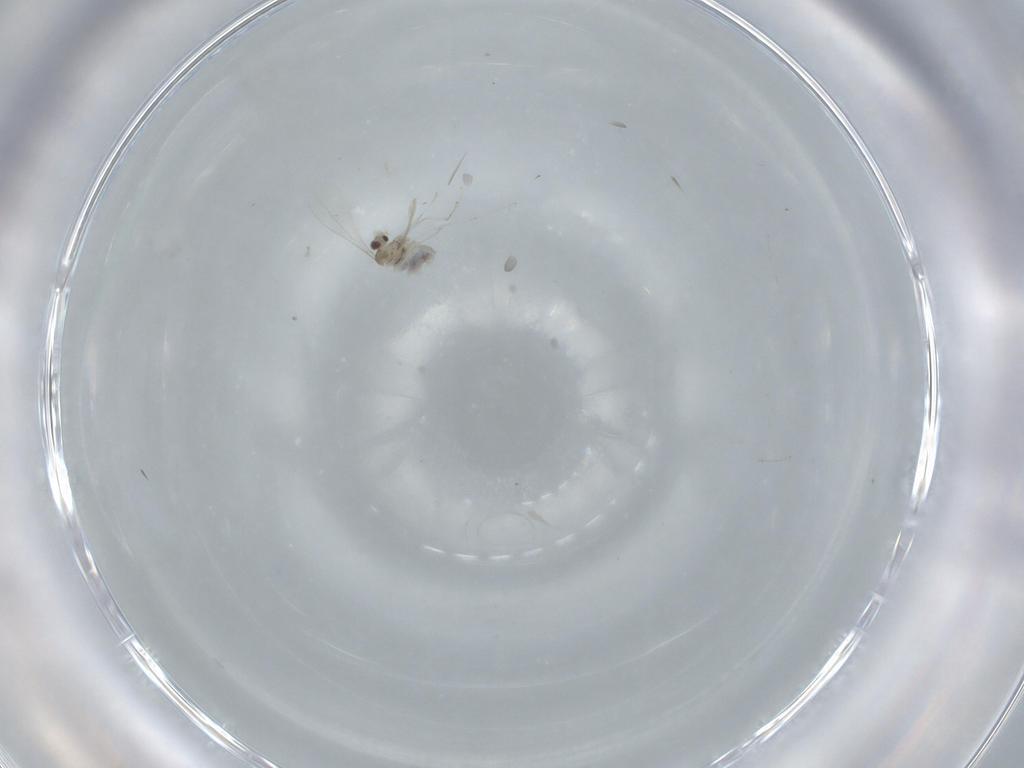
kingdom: Animalia
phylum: Arthropoda
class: Insecta
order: Diptera
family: Cecidomyiidae
